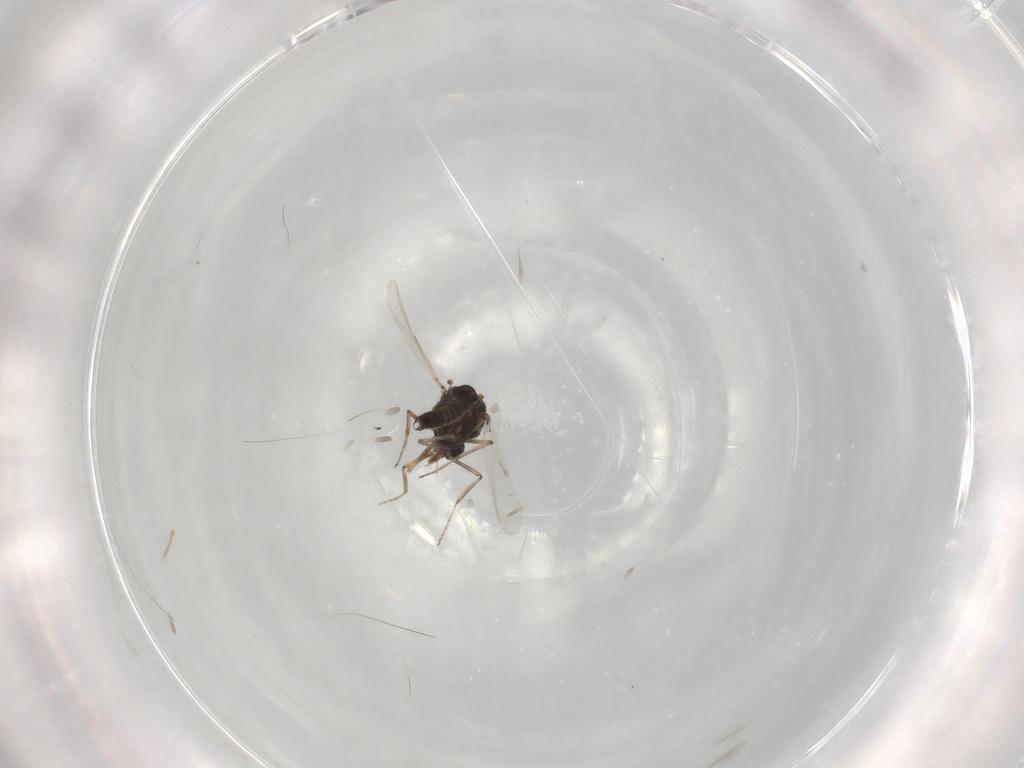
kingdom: Animalia
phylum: Arthropoda
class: Insecta
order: Diptera
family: Ceratopogonidae
